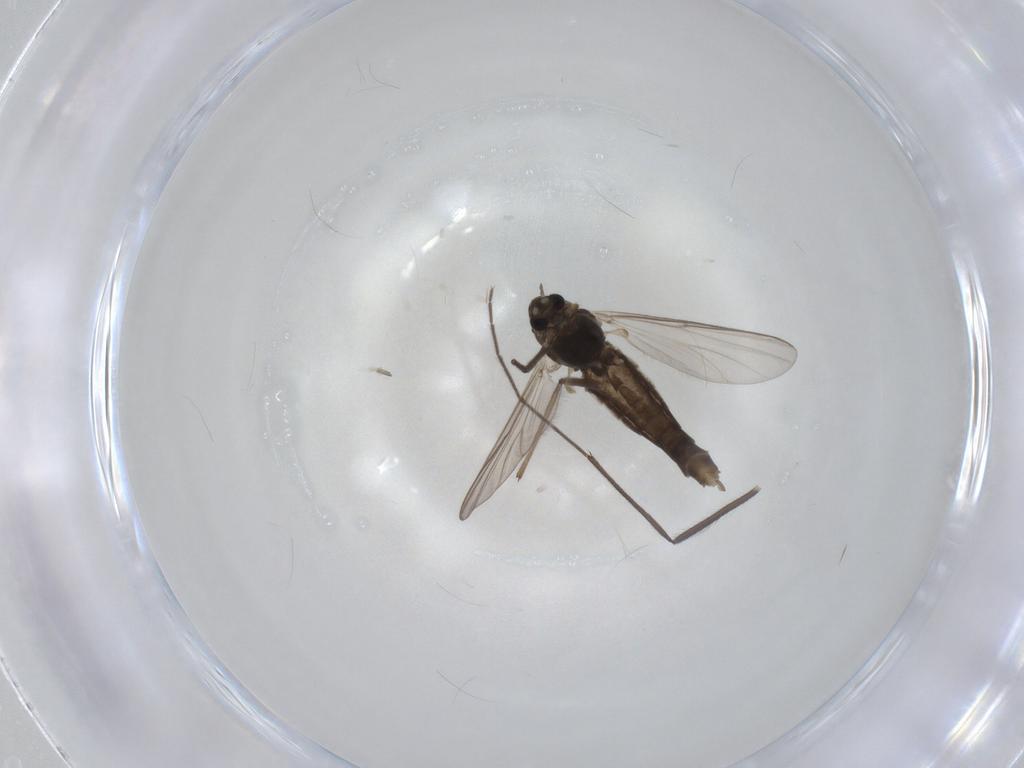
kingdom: Animalia
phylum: Arthropoda
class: Insecta
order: Diptera
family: Chironomidae
